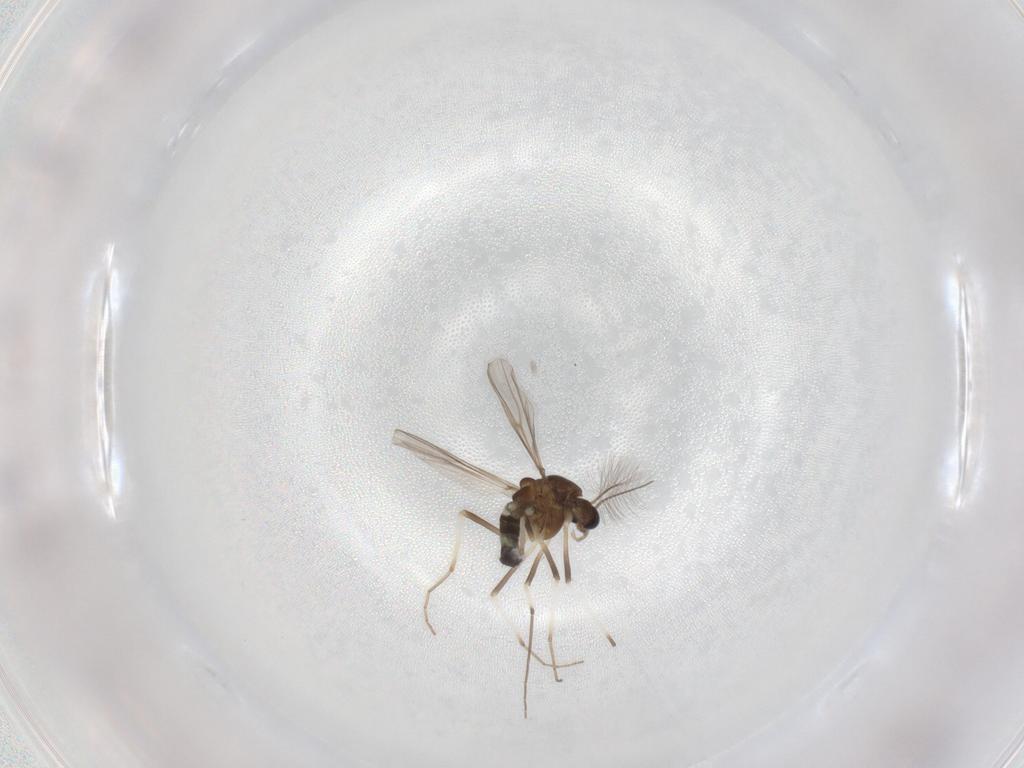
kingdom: Animalia
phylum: Arthropoda
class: Insecta
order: Diptera
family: Chironomidae
